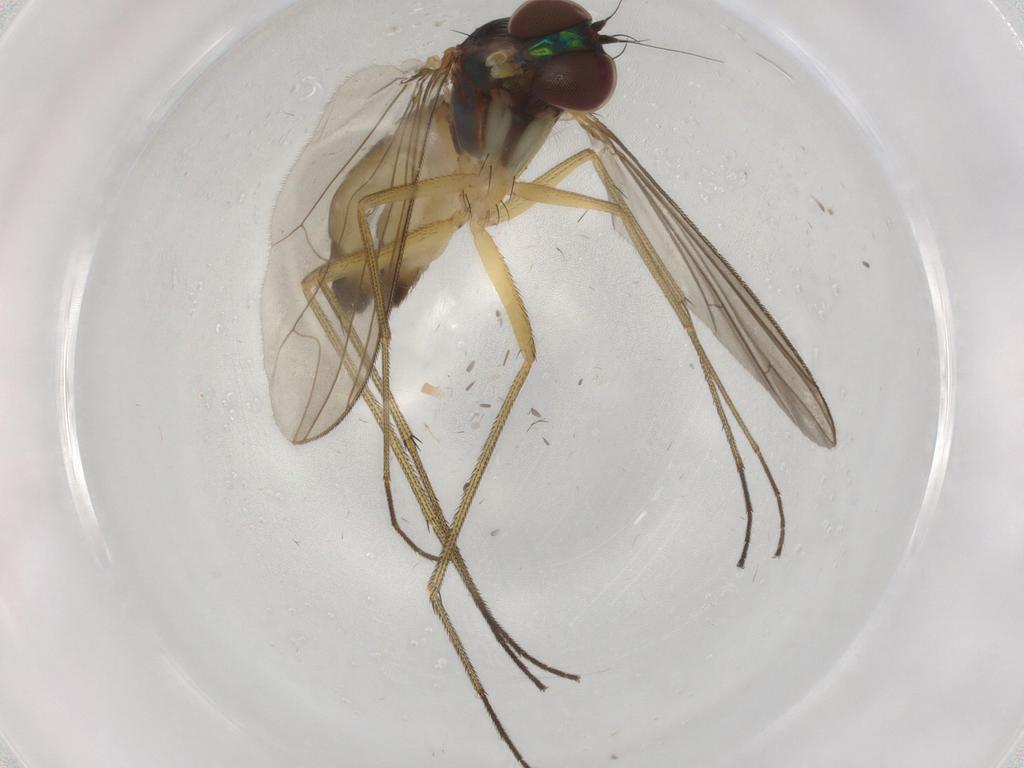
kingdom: Animalia
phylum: Arthropoda
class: Insecta
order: Diptera
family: Dolichopodidae
